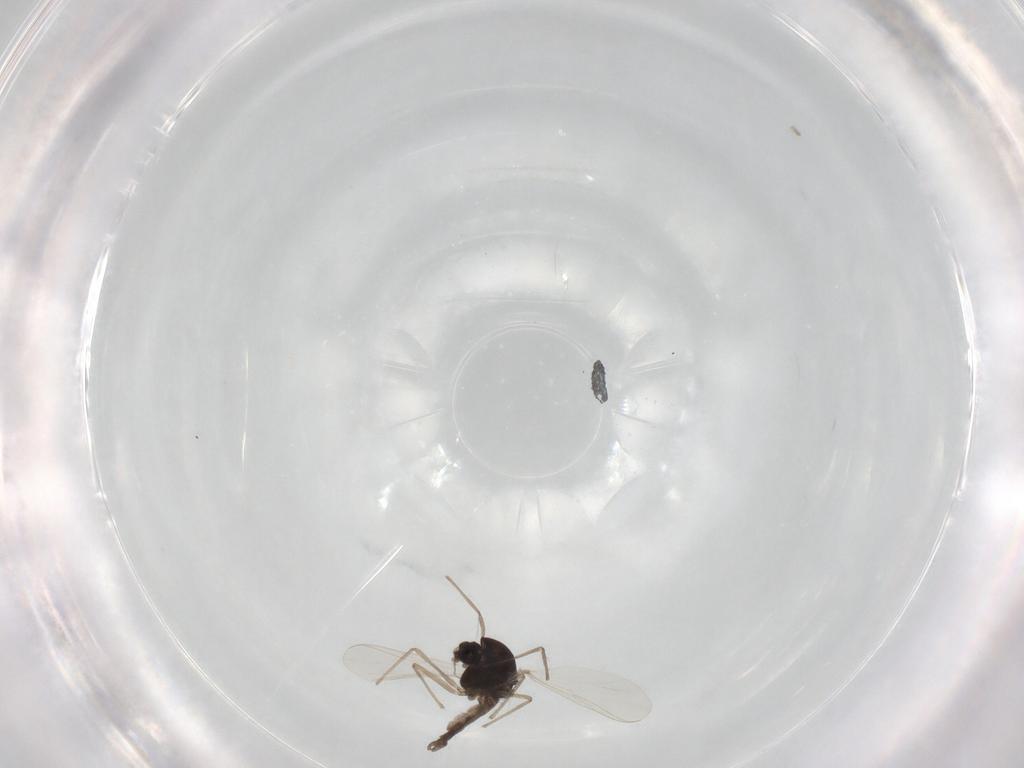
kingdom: Animalia
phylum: Arthropoda
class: Insecta
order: Diptera
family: Chironomidae
